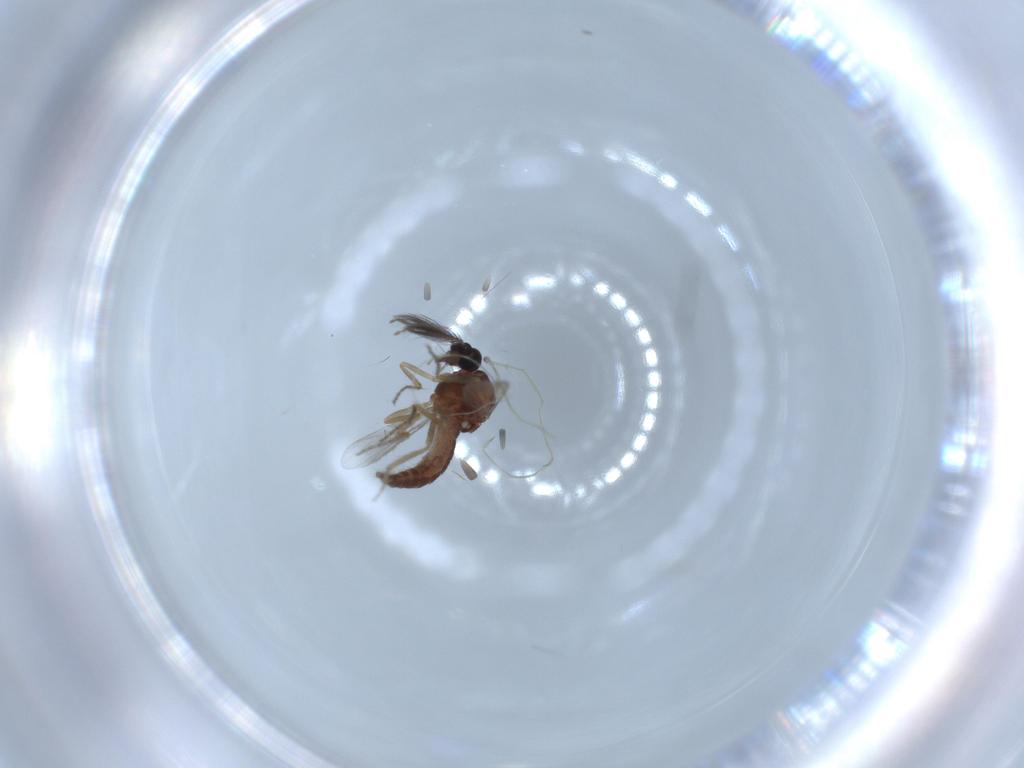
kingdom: Animalia
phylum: Arthropoda
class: Insecta
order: Diptera
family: Ceratopogonidae
